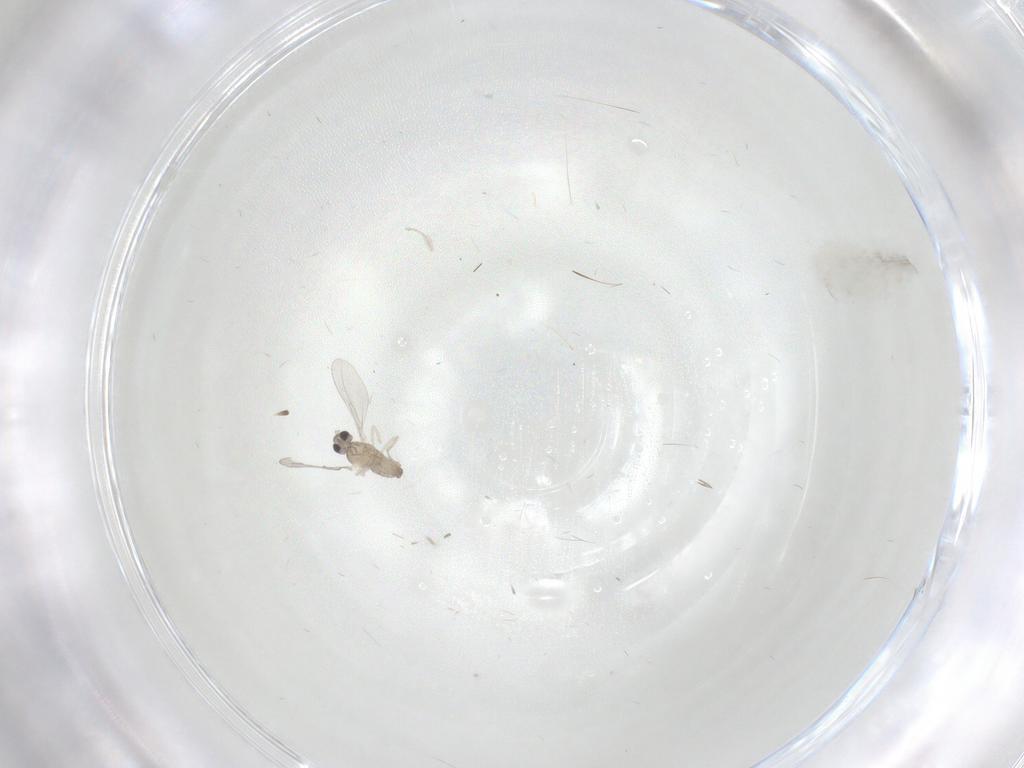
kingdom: Animalia
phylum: Arthropoda
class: Insecta
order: Diptera
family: Cecidomyiidae
